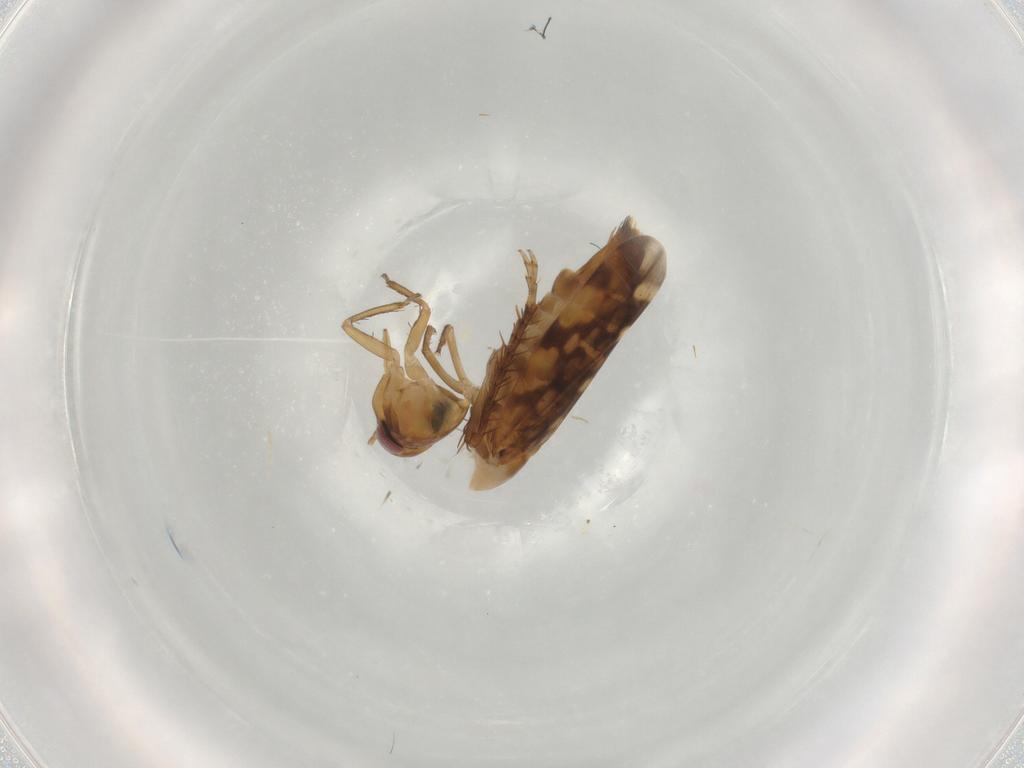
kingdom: Animalia
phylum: Arthropoda
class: Insecta
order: Hemiptera
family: Cicadellidae
